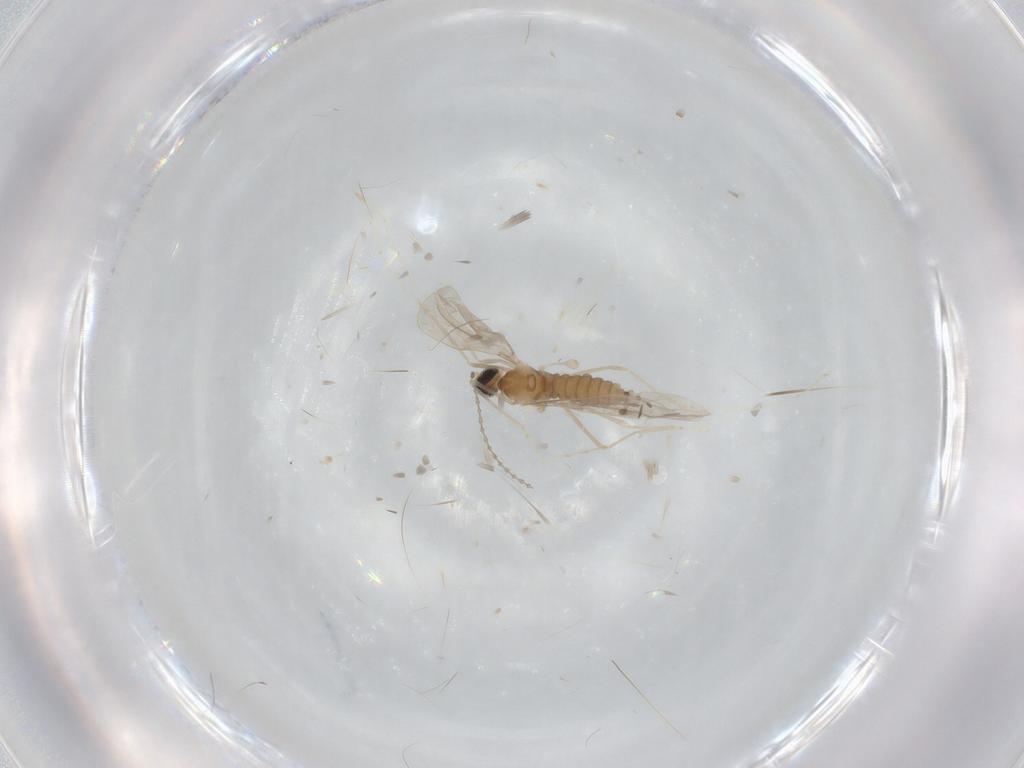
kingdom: Animalia
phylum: Arthropoda
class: Insecta
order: Diptera
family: Cecidomyiidae
